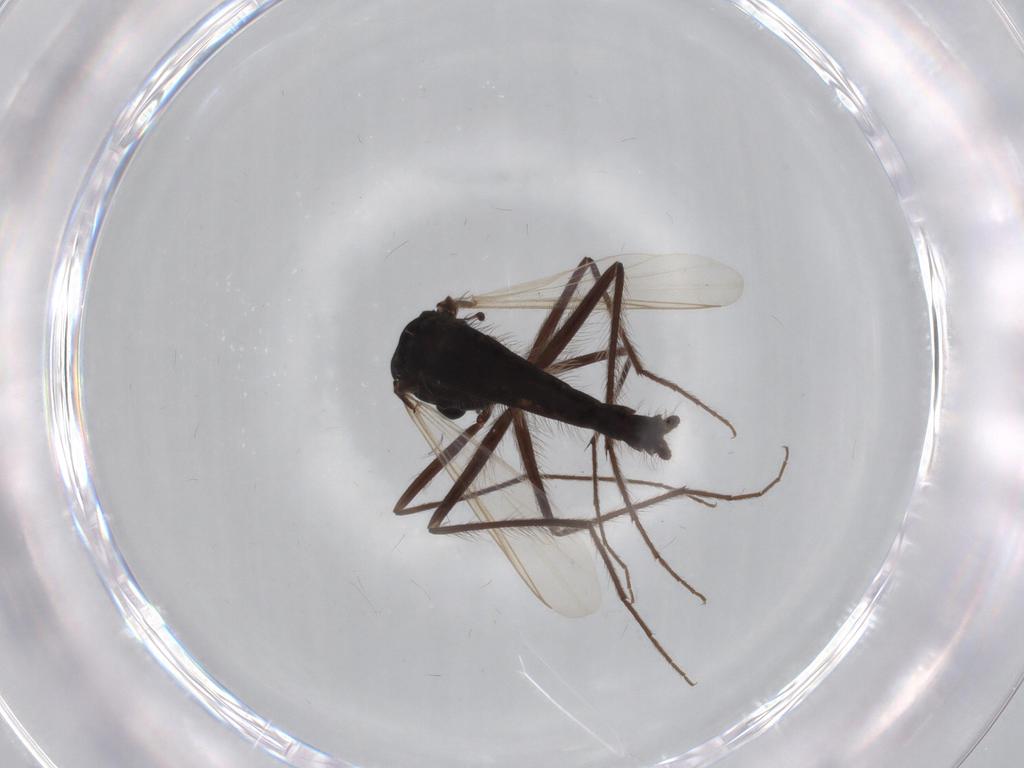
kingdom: Animalia
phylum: Arthropoda
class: Insecta
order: Diptera
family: Drosophilidae
